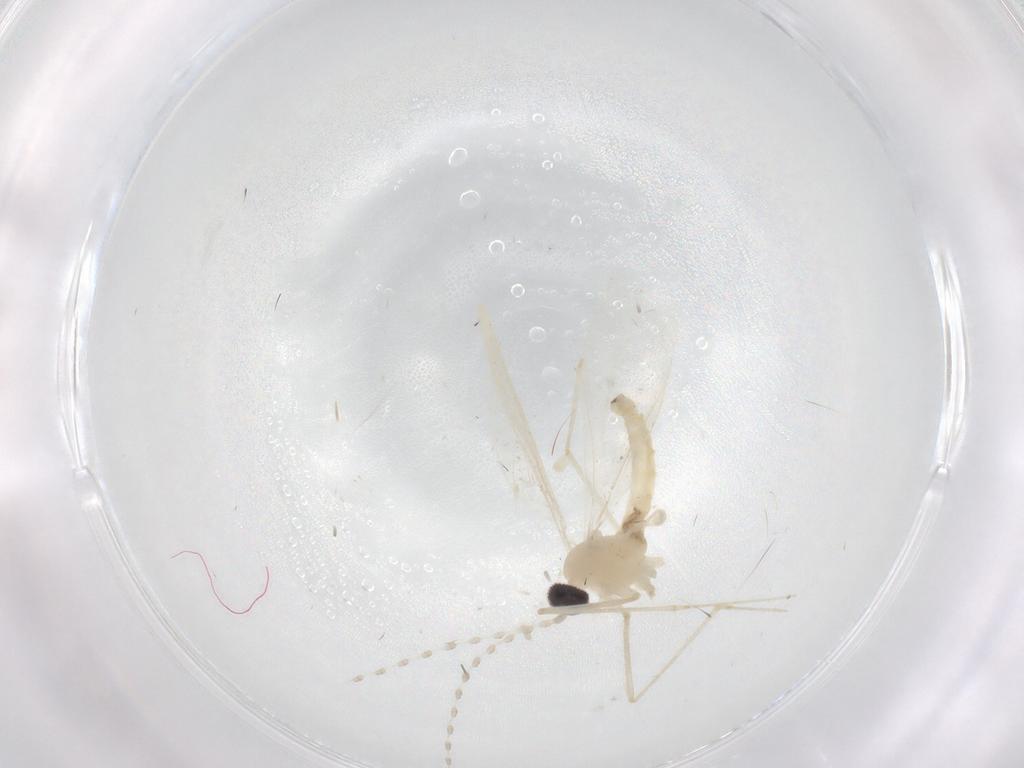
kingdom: Animalia
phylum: Arthropoda
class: Insecta
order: Diptera
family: Cecidomyiidae
